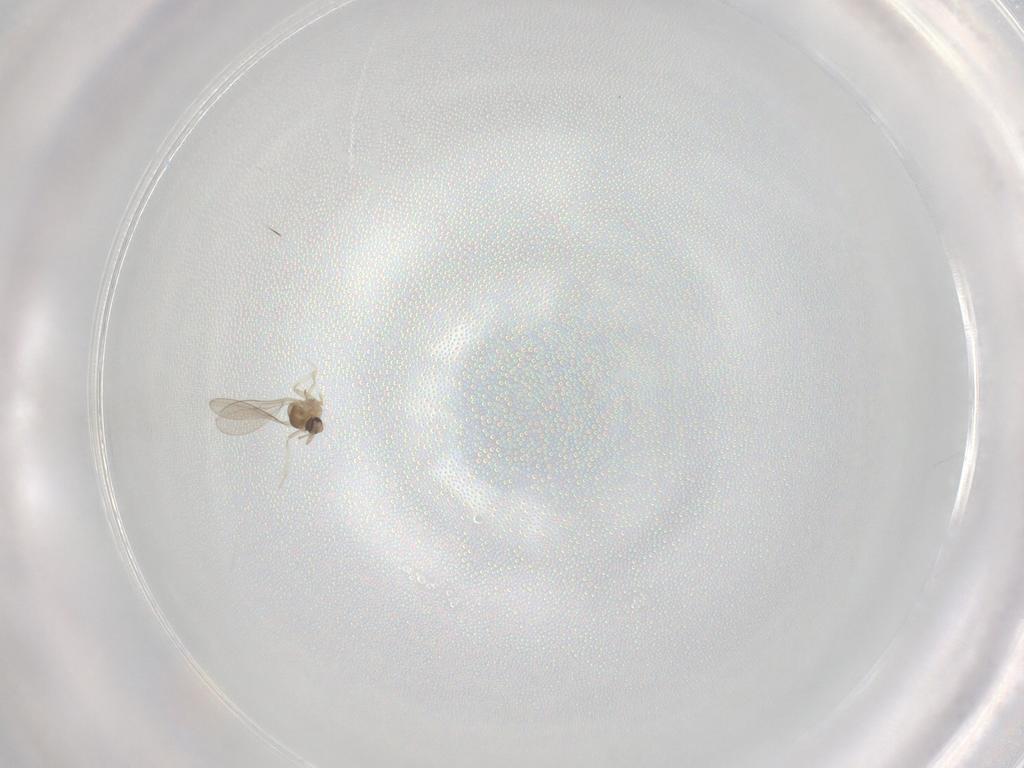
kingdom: Animalia
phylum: Arthropoda
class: Insecta
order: Diptera
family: Cecidomyiidae
